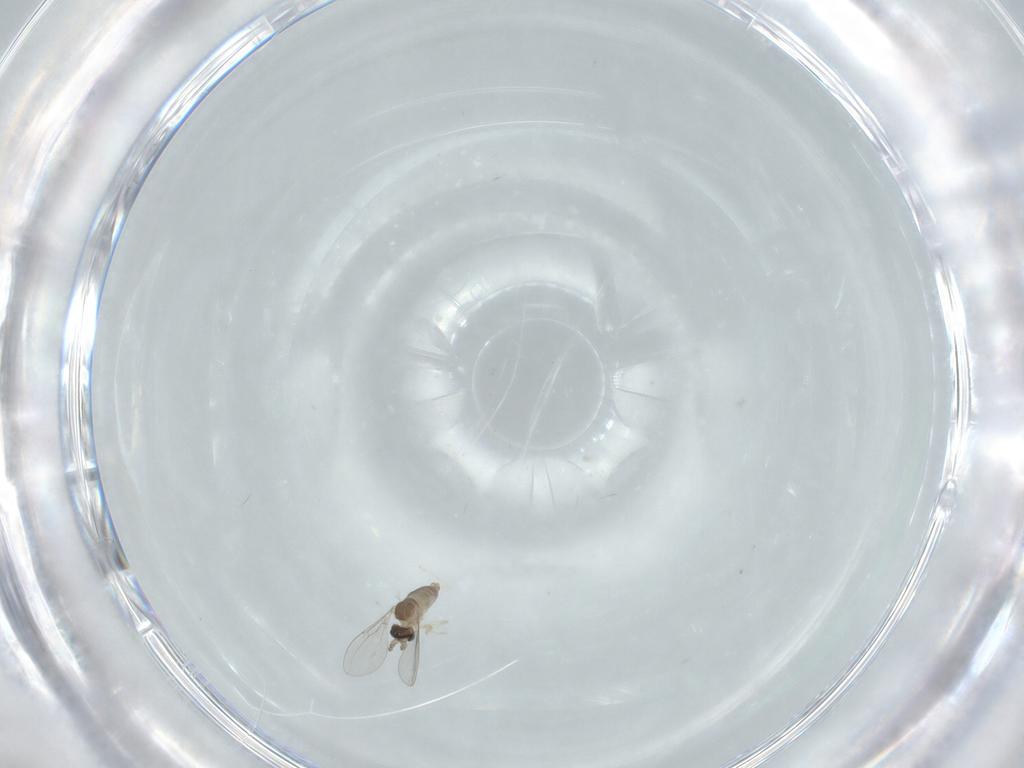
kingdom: Animalia
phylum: Arthropoda
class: Insecta
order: Diptera
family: Cecidomyiidae
